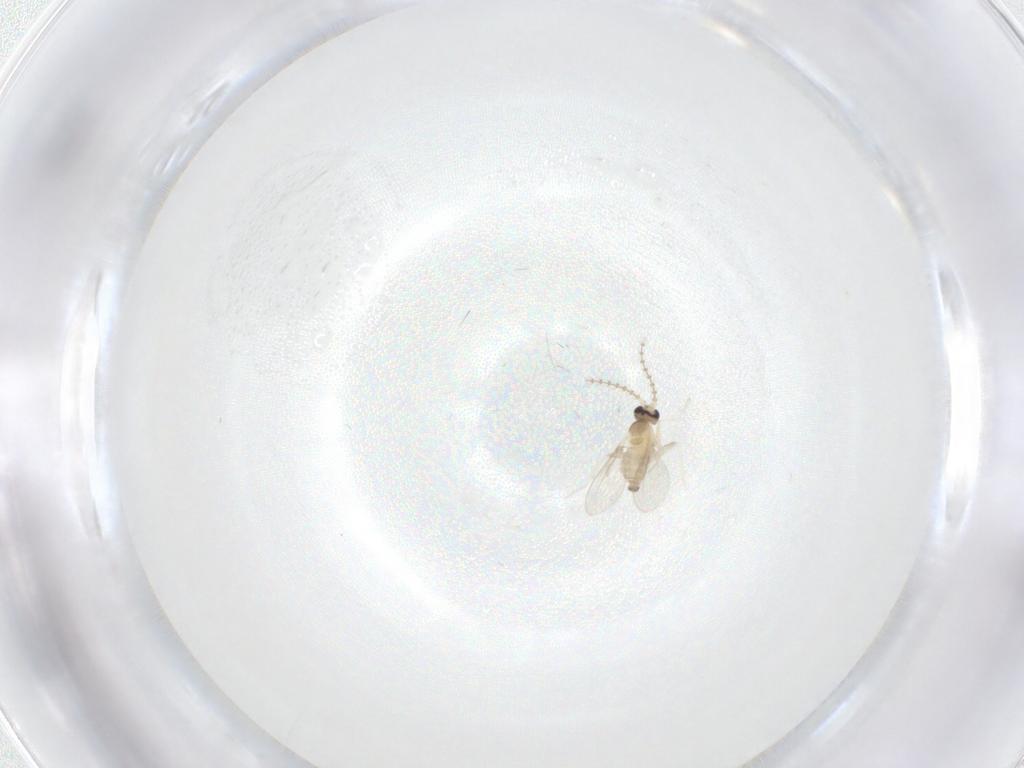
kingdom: Animalia
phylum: Arthropoda
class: Insecta
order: Diptera
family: Cecidomyiidae
